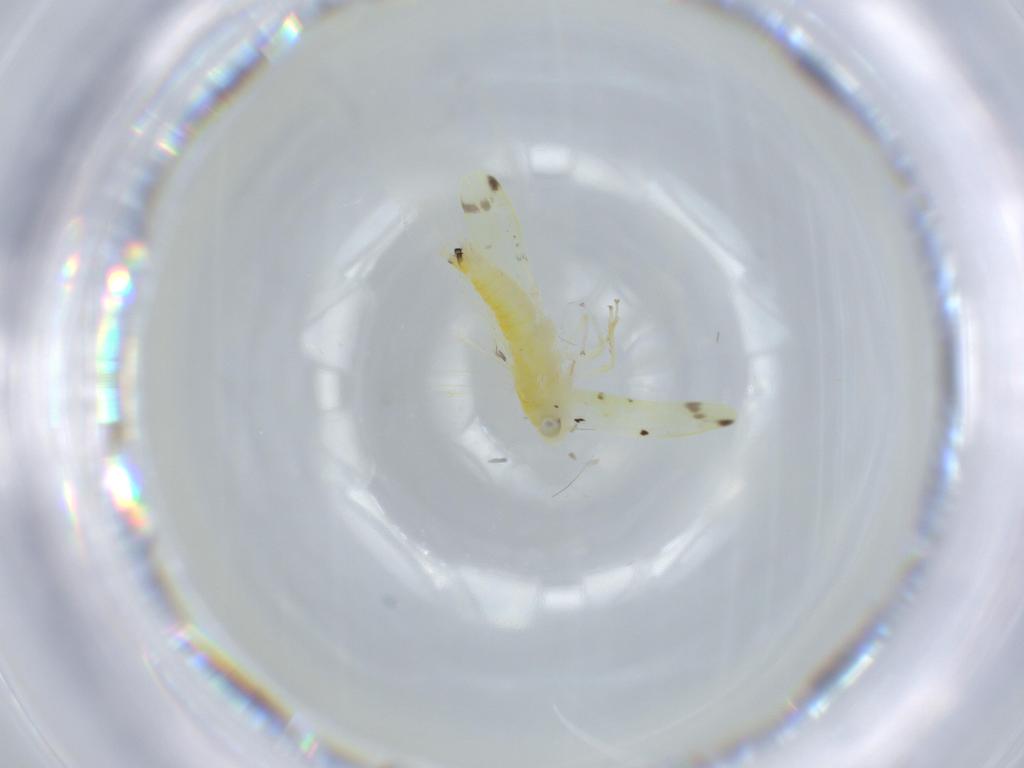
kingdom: Animalia
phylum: Arthropoda
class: Insecta
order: Hemiptera
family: Cicadellidae
